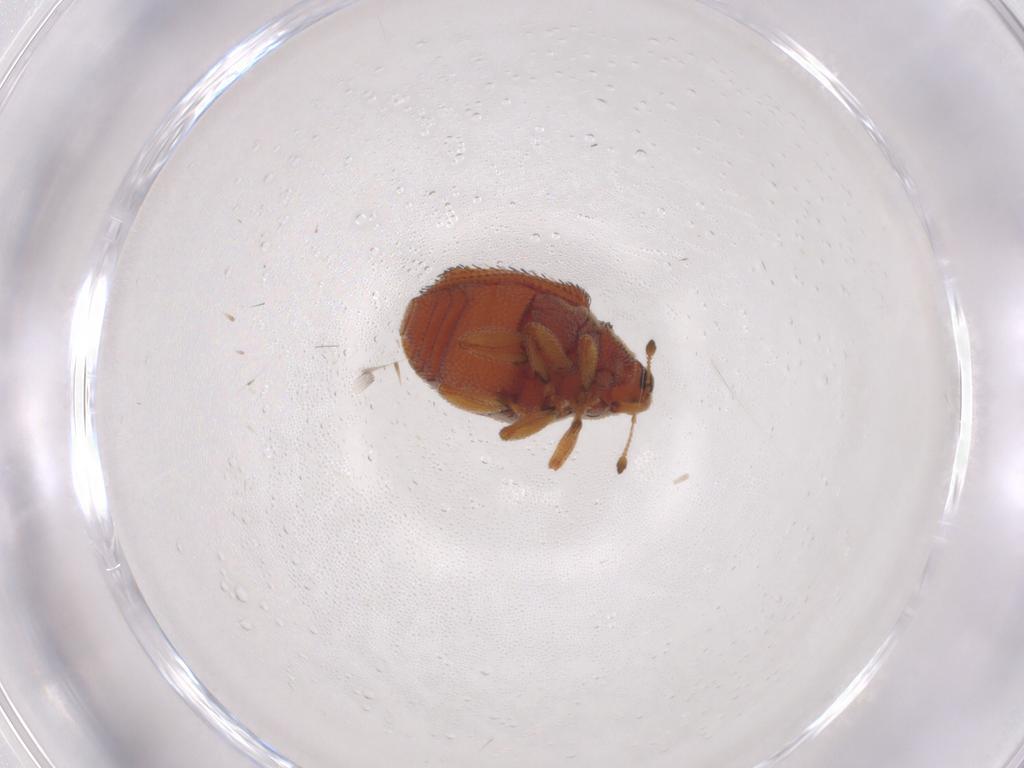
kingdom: Animalia
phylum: Arthropoda
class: Insecta
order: Coleoptera
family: Curculionidae
